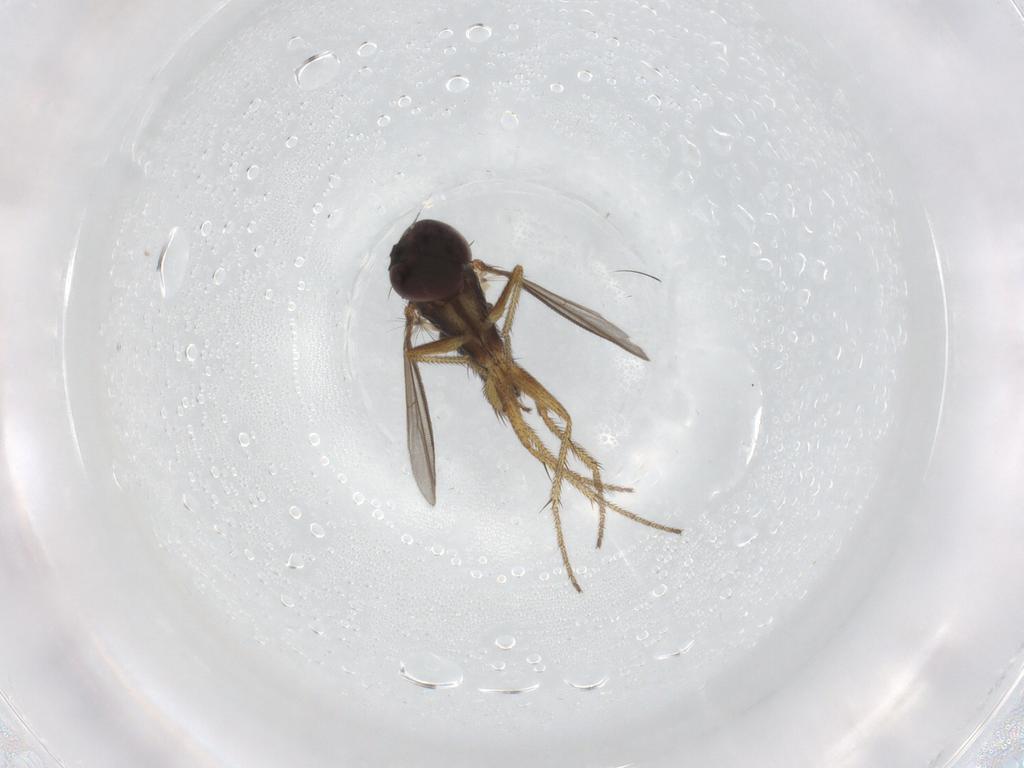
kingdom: Animalia
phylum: Arthropoda
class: Insecta
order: Diptera
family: Dolichopodidae
